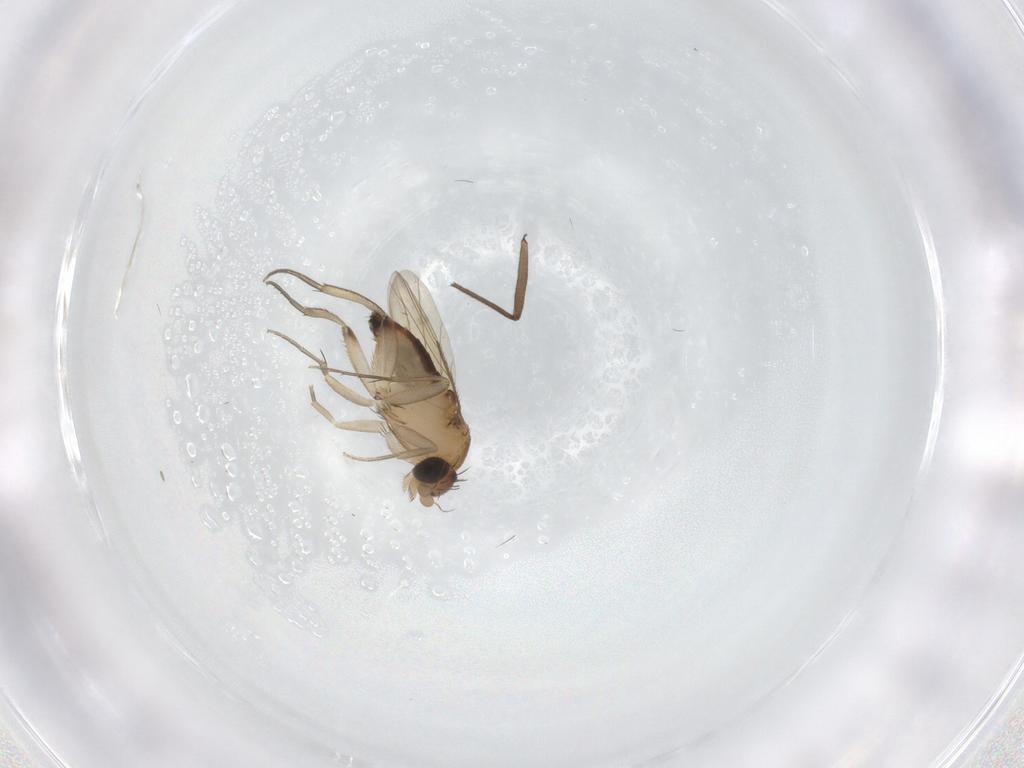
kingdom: Animalia
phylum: Arthropoda
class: Insecta
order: Diptera
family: Phoridae
